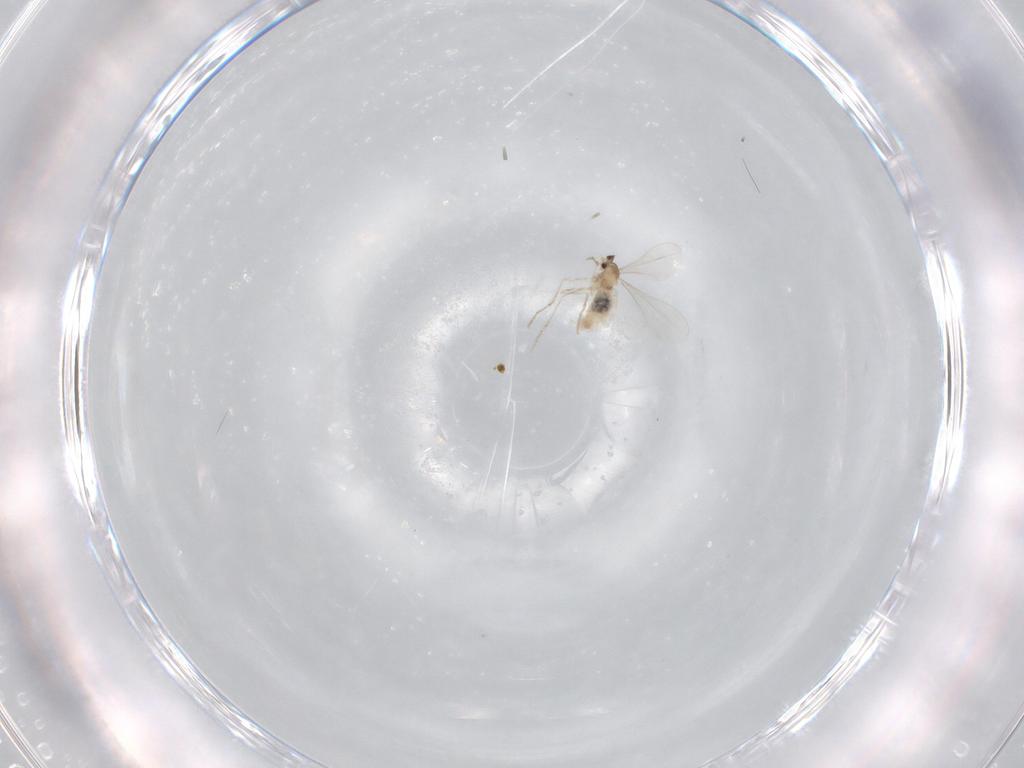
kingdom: Animalia
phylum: Arthropoda
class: Insecta
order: Diptera
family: Cecidomyiidae
